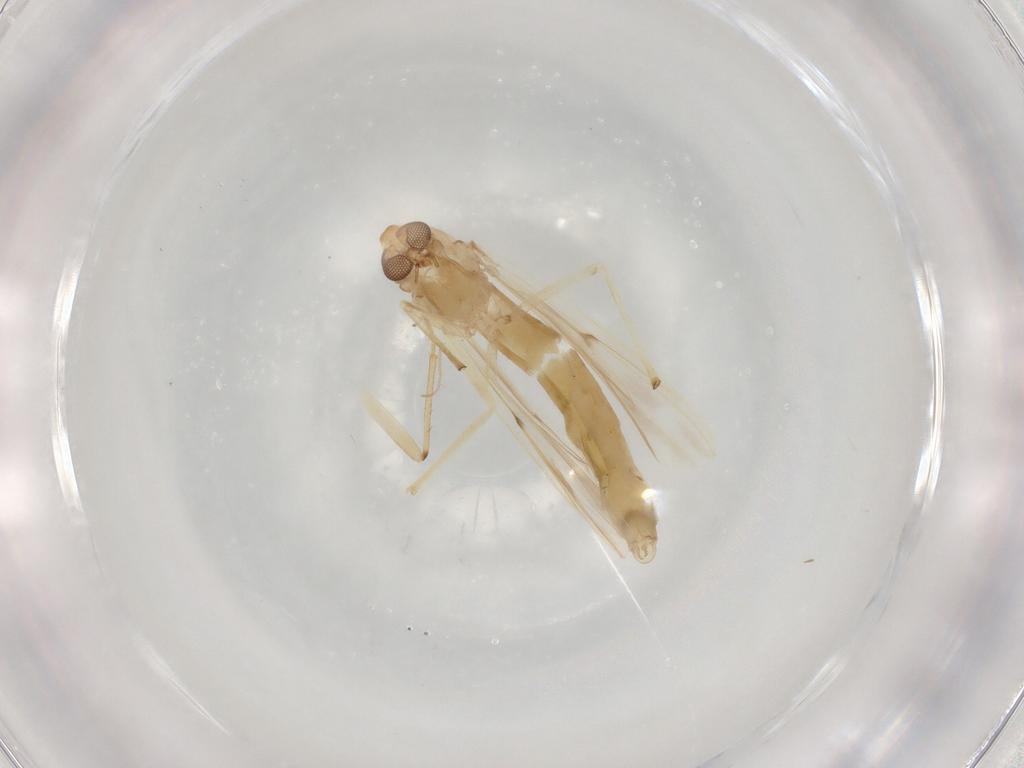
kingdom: Animalia
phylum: Arthropoda
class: Insecta
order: Diptera
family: Chironomidae
